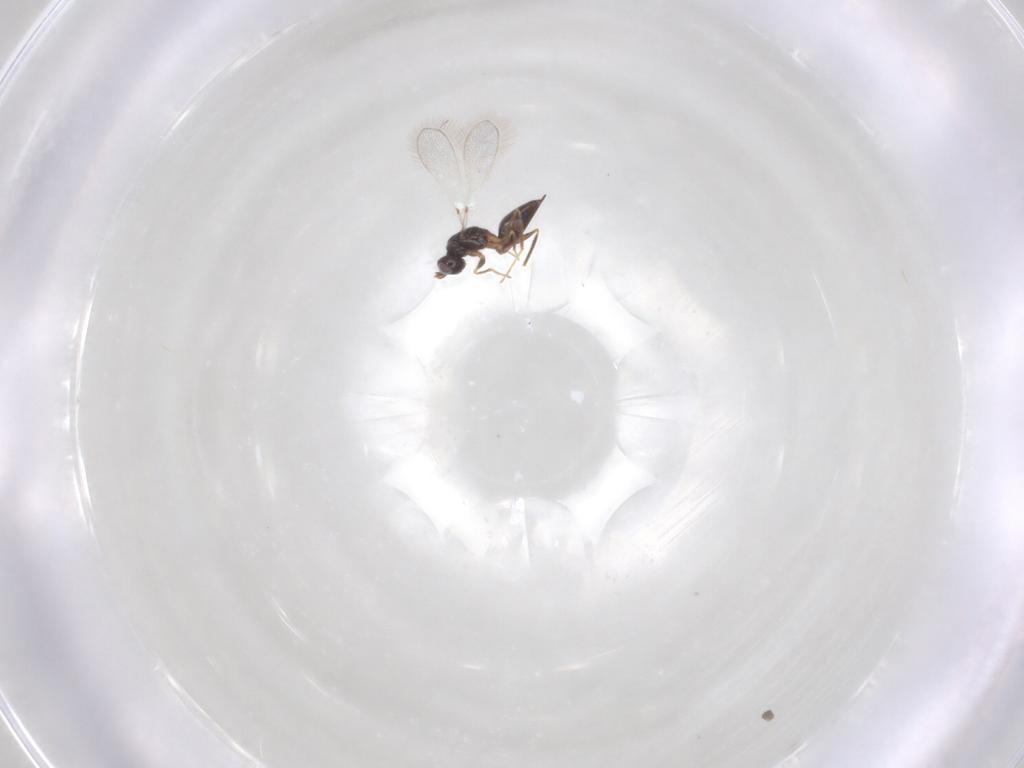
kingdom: Animalia
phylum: Arthropoda
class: Insecta
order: Hymenoptera
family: Mymaridae
